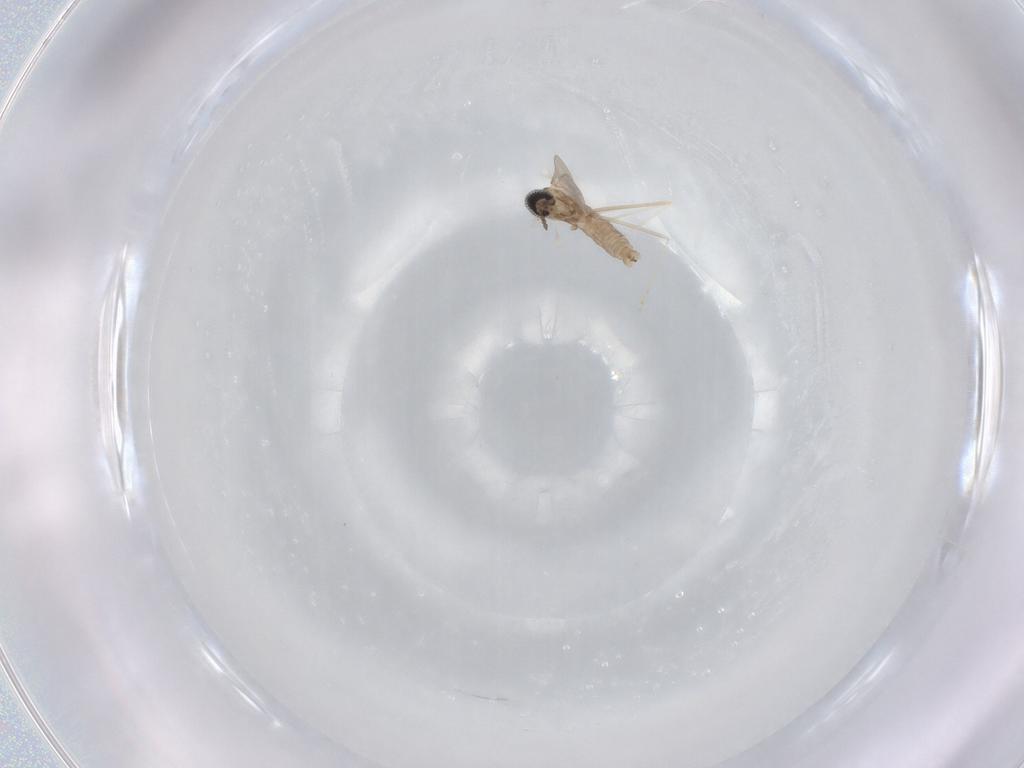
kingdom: Animalia
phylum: Arthropoda
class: Insecta
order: Diptera
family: Cecidomyiidae
